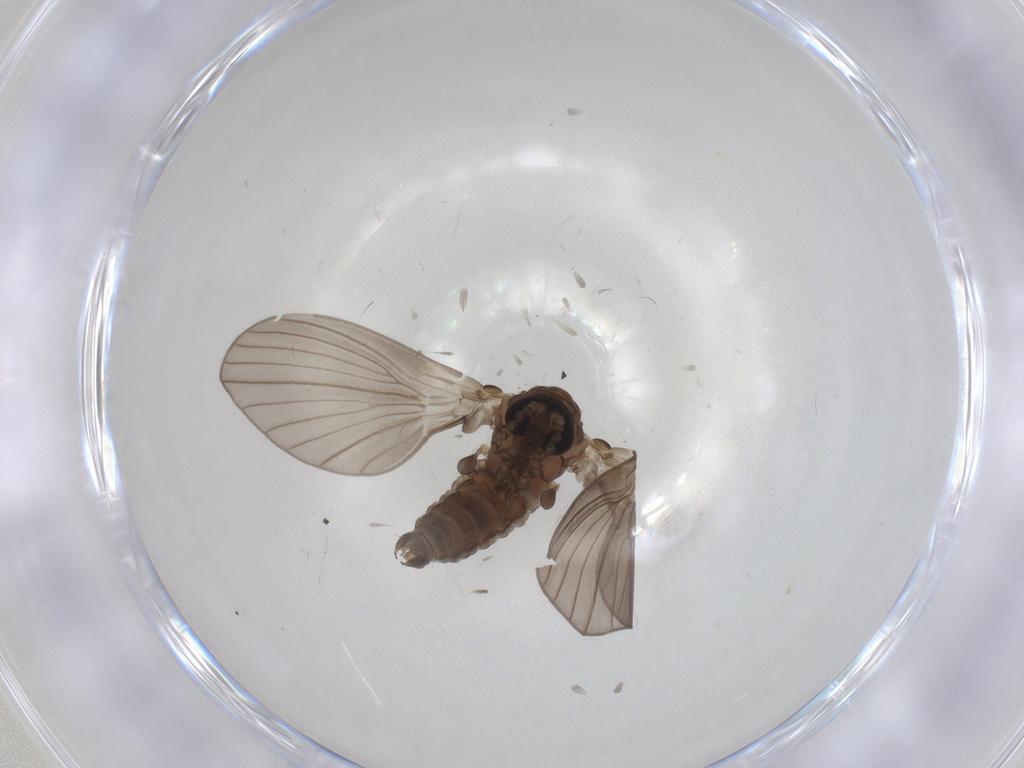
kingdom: Animalia
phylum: Arthropoda
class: Insecta
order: Diptera
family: Psychodidae
